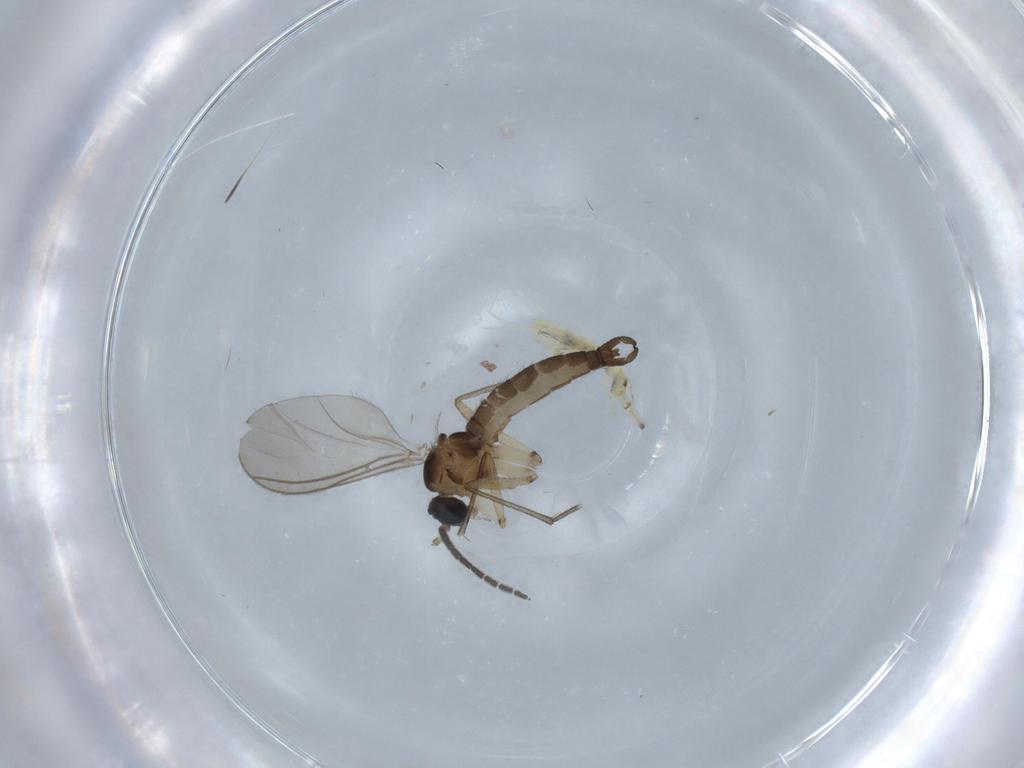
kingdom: Animalia
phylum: Arthropoda
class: Insecta
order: Diptera
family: Sciaridae
